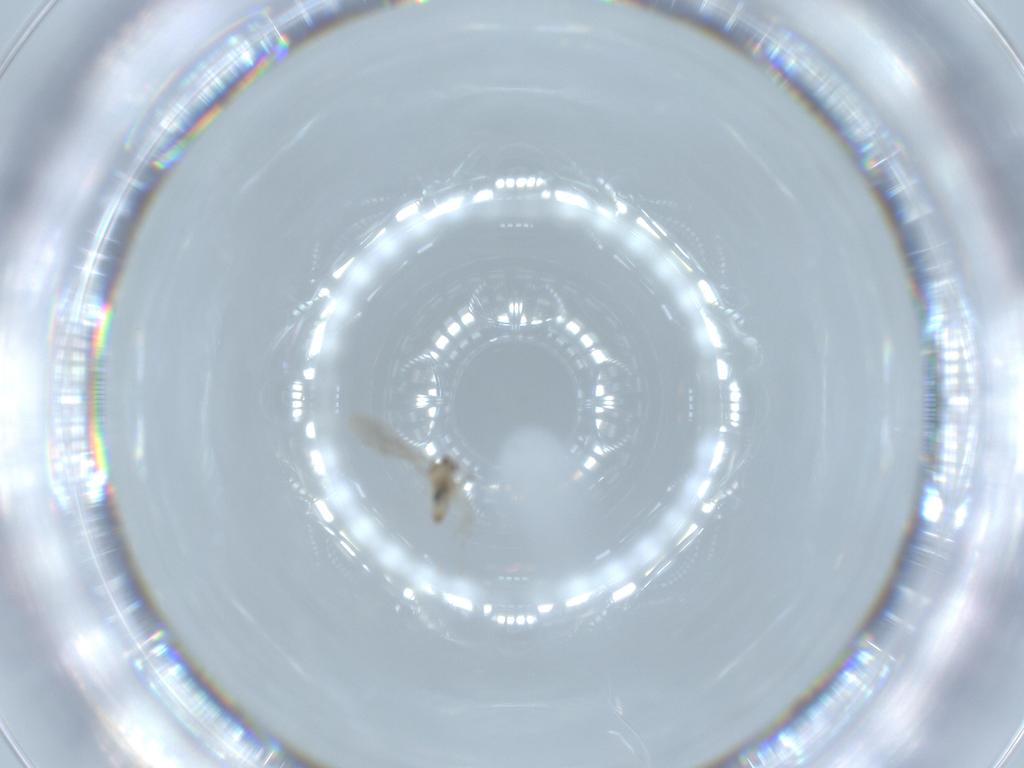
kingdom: Animalia
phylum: Arthropoda
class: Insecta
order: Diptera
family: Cecidomyiidae
